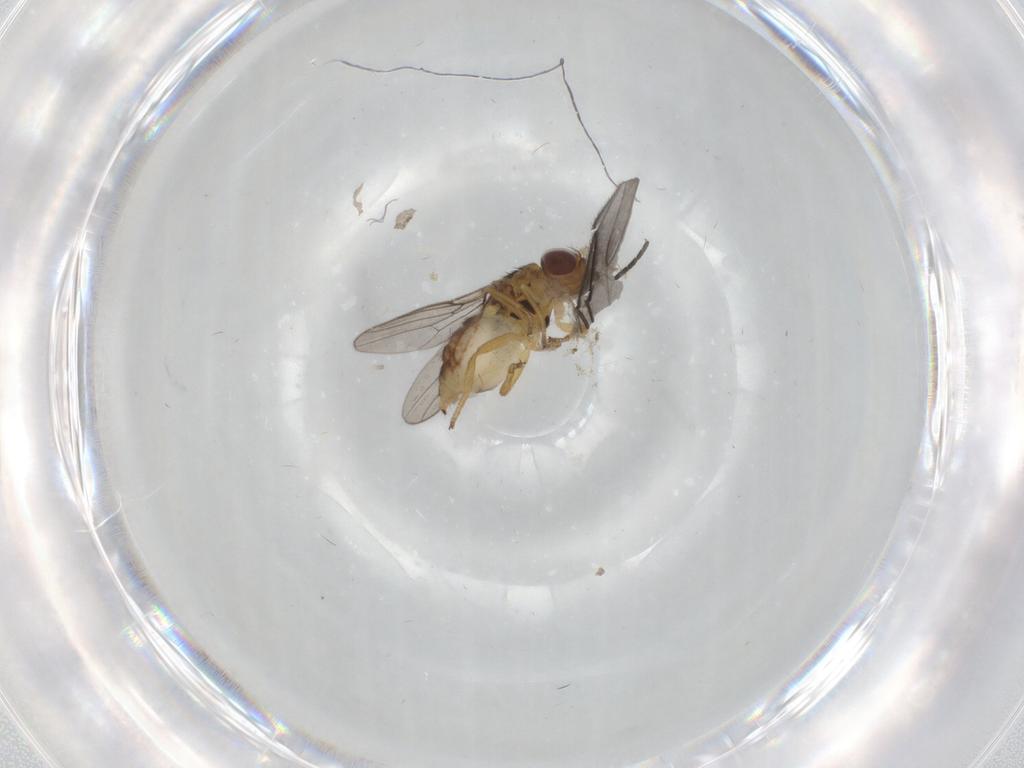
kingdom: Animalia
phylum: Arthropoda
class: Insecta
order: Diptera
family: Chloropidae
